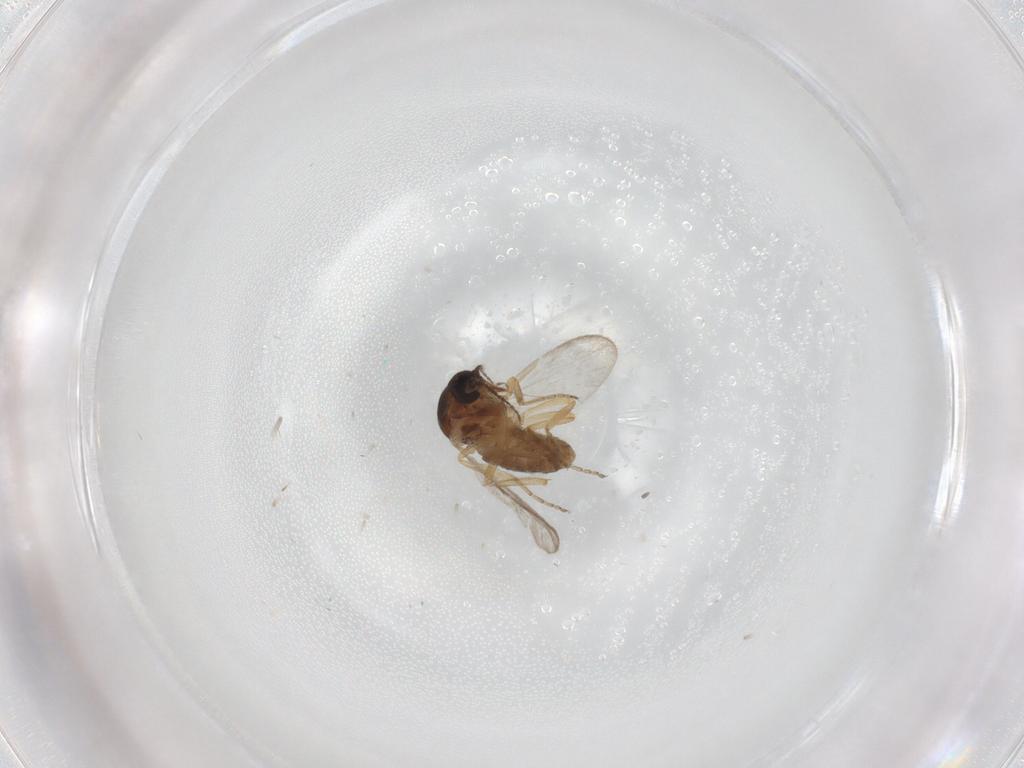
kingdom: Animalia
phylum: Arthropoda
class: Insecta
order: Diptera
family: Ceratopogonidae
